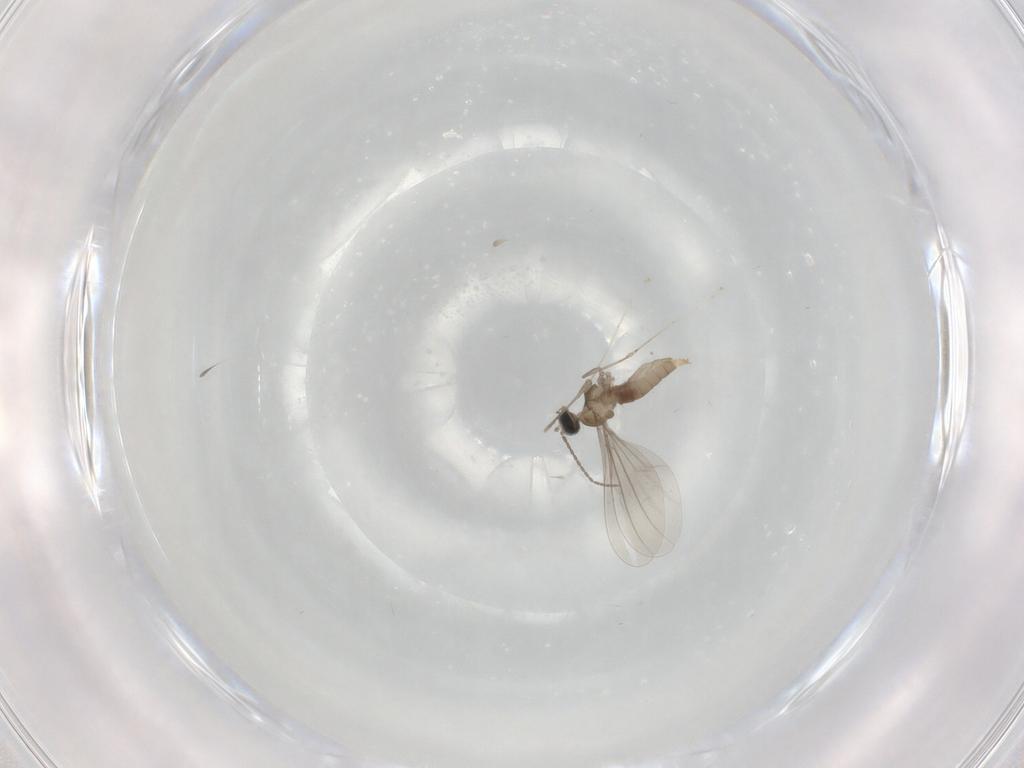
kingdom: Animalia
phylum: Arthropoda
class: Insecta
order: Diptera
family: Cecidomyiidae
